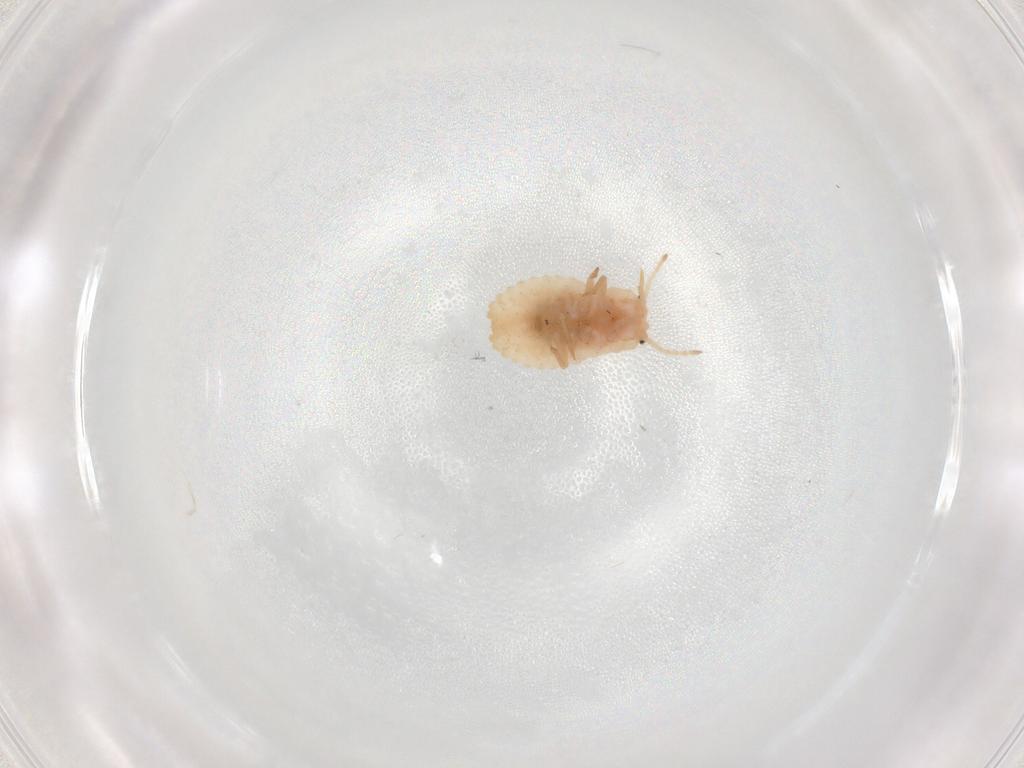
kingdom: Animalia
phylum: Arthropoda
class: Insecta
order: Hemiptera
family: Coccoidea_incertae_sedis
